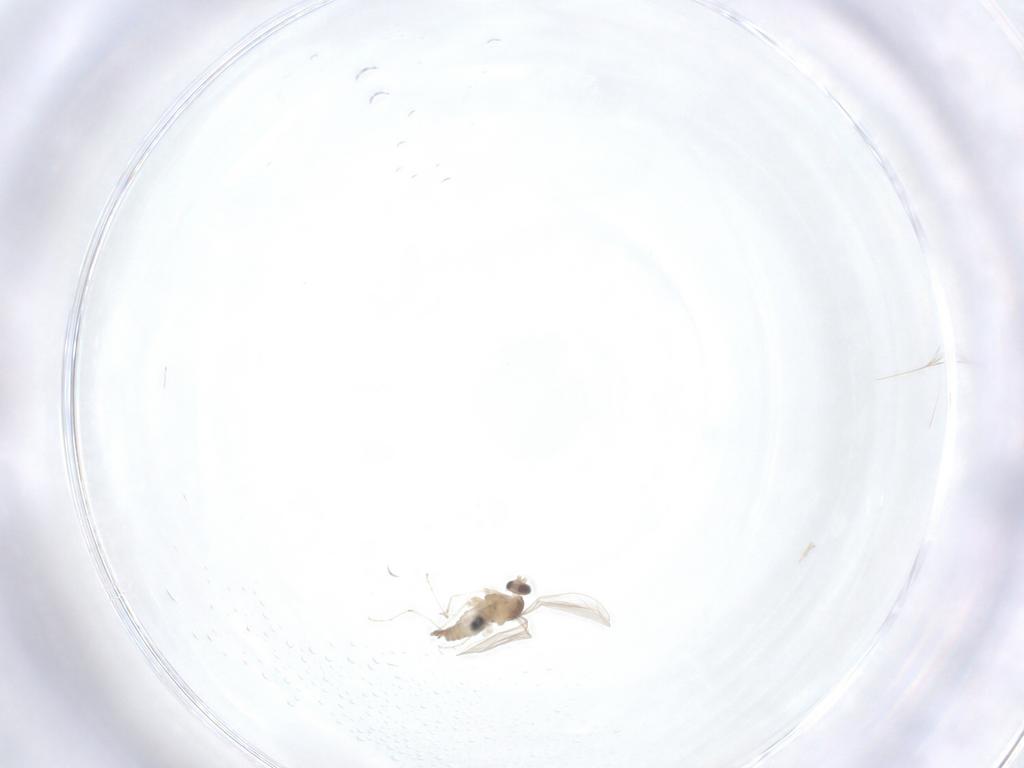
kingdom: Animalia
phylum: Arthropoda
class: Insecta
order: Diptera
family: Cecidomyiidae
